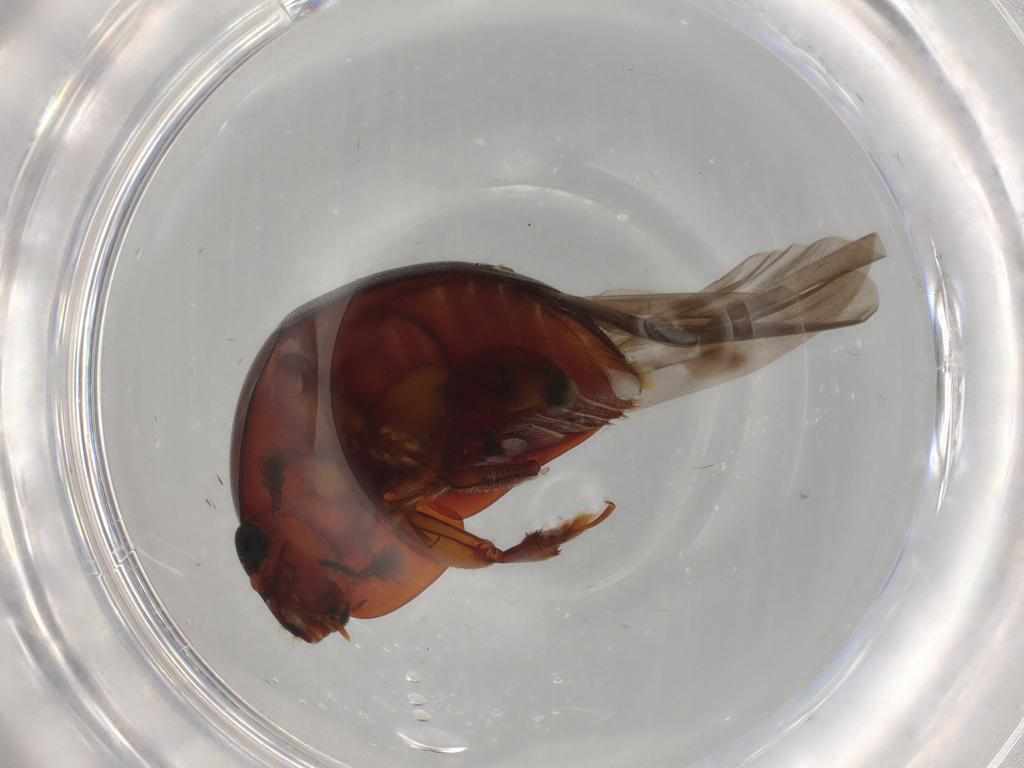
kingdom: Animalia
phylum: Arthropoda
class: Insecta
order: Coleoptera
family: Nitidulidae
